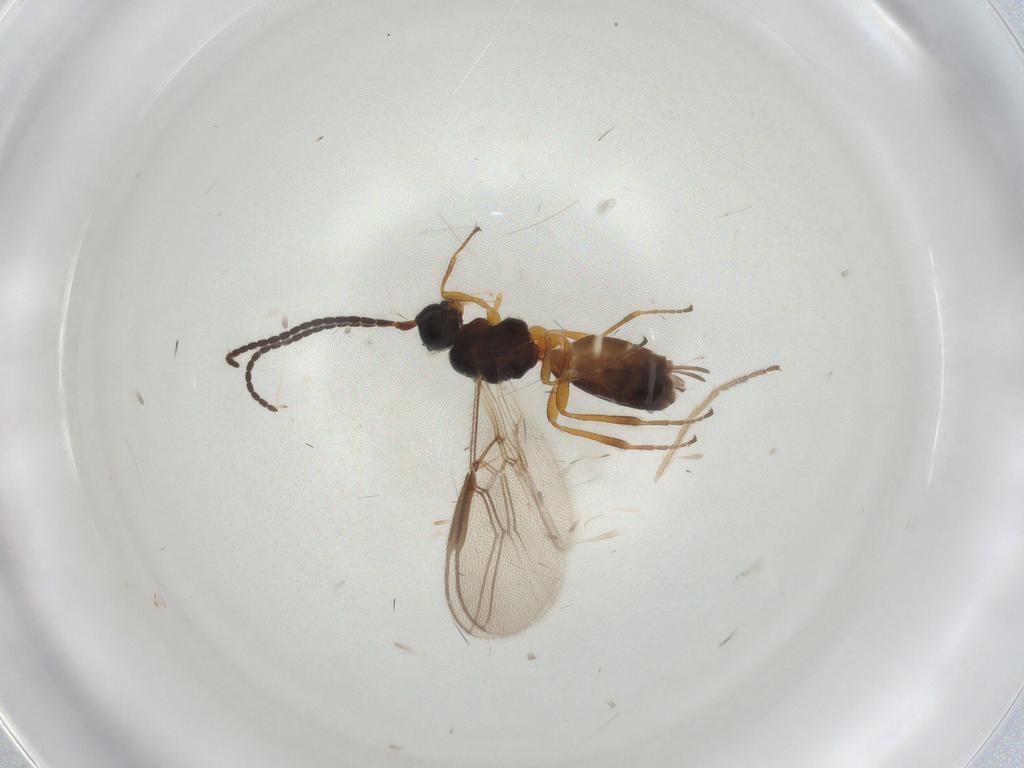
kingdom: Animalia
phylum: Arthropoda
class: Insecta
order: Hymenoptera
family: Braconidae
